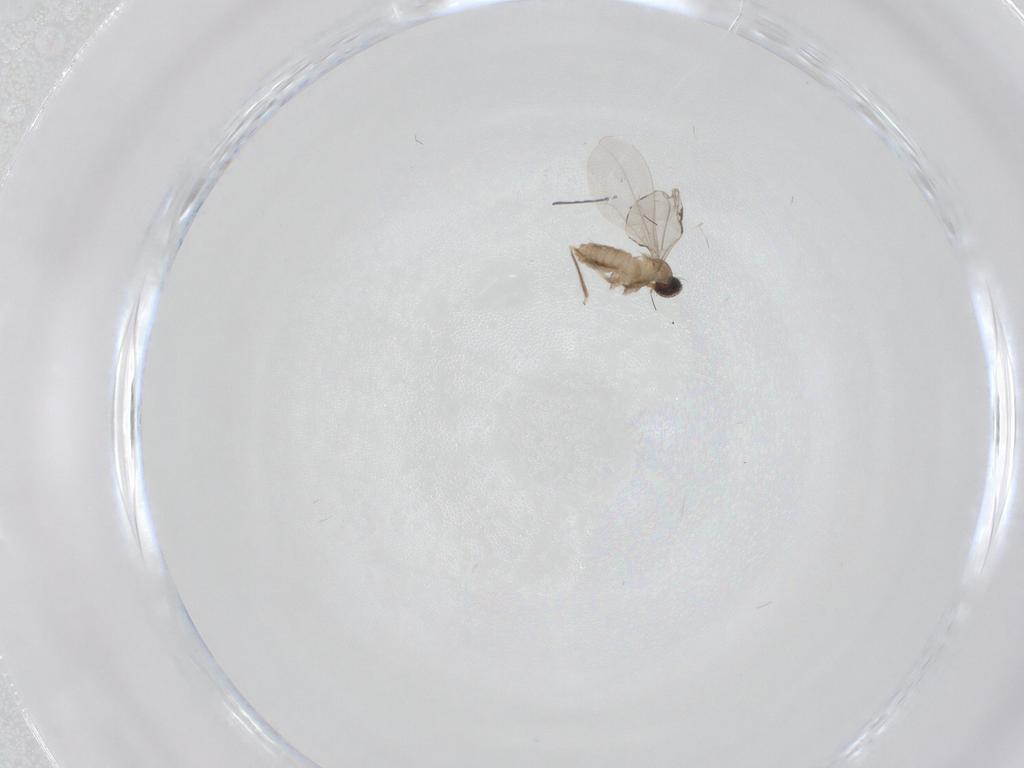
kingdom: Animalia
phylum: Arthropoda
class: Insecta
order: Diptera
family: Cecidomyiidae
